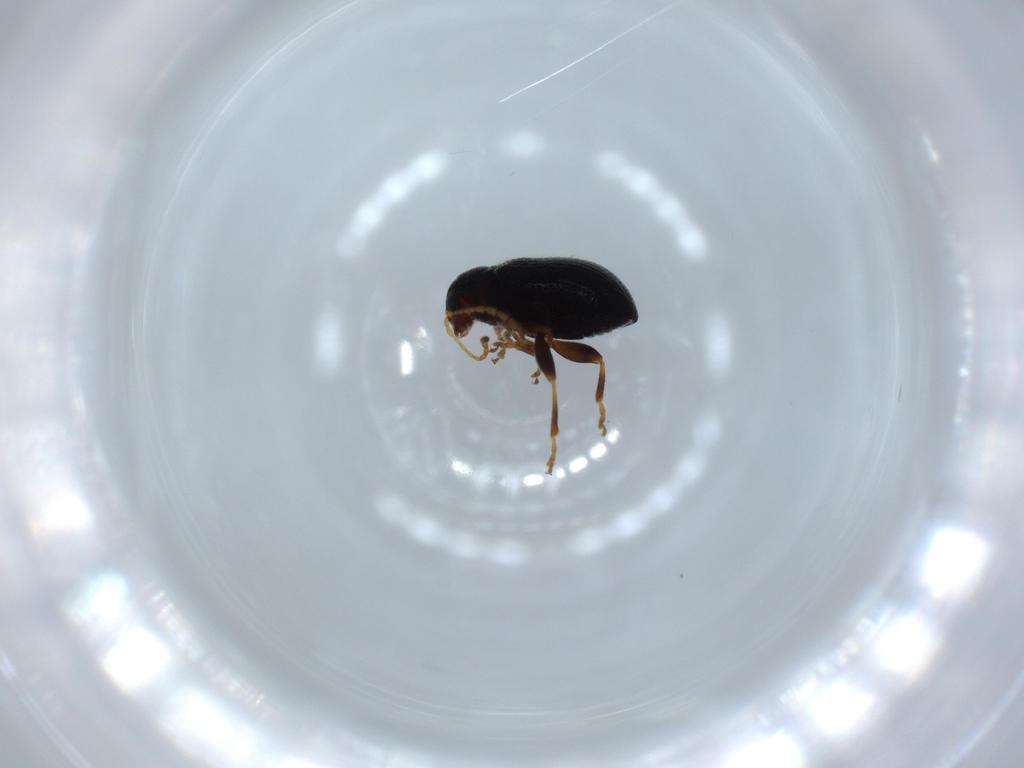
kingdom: Animalia
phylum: Arthropoda
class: Insecta
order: Coleoptera
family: Chrysomelidae
